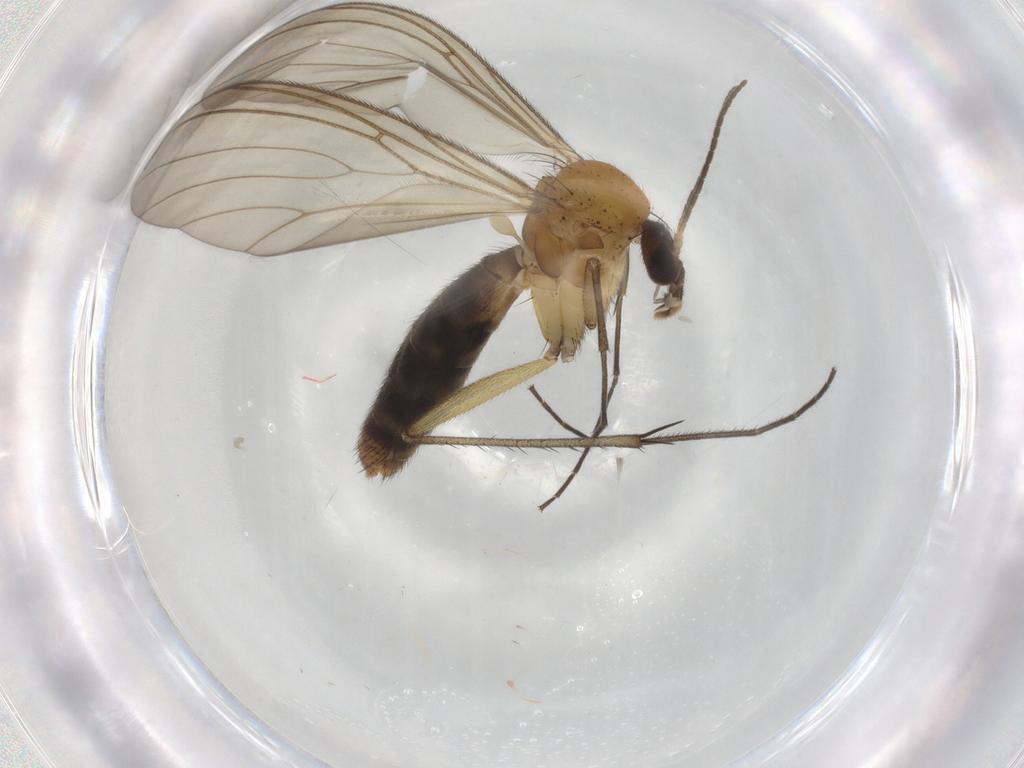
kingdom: Animalia
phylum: Arthropoda
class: Insecta
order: Diptera
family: Mycetophilidae
